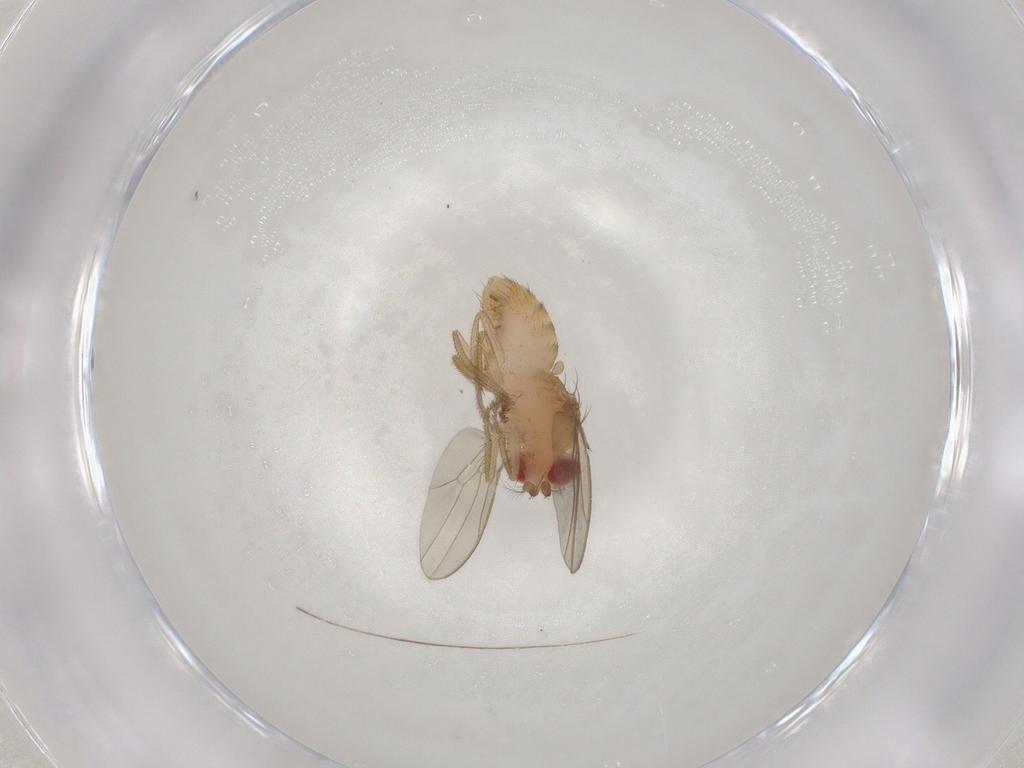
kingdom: Animalia
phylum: Arthropoda
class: Insecta
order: Diptera
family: Drosophilidae
